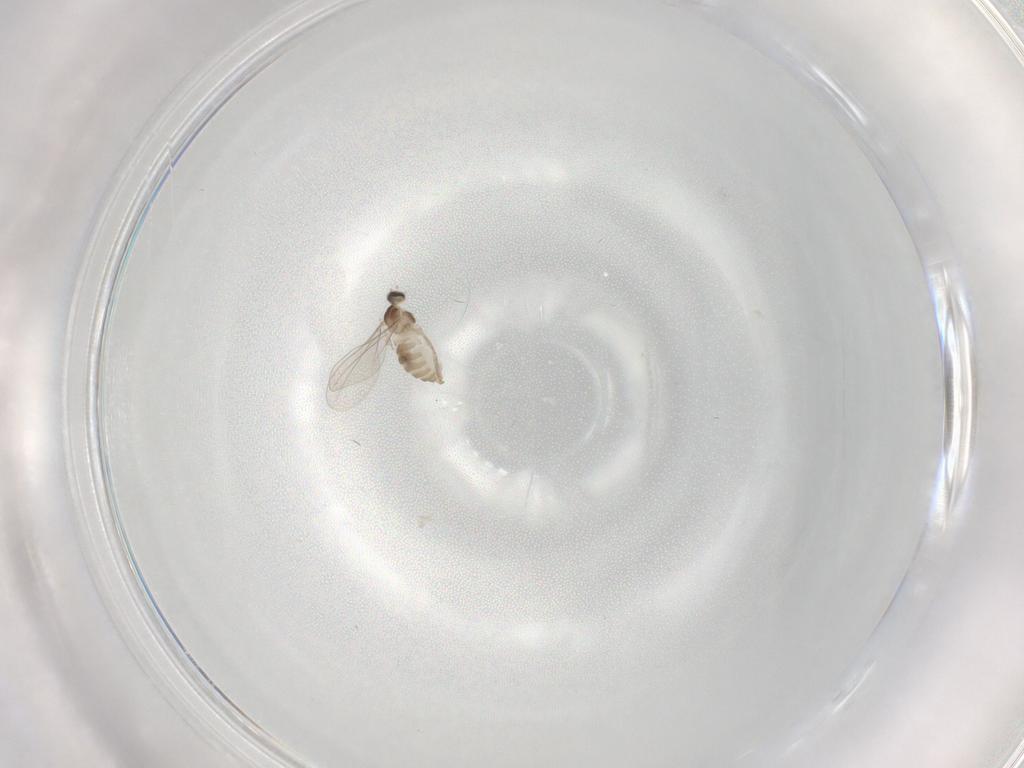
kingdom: Animalia
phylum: Arthropoda
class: Insecta
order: Diptera
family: Cecidomyiidae
